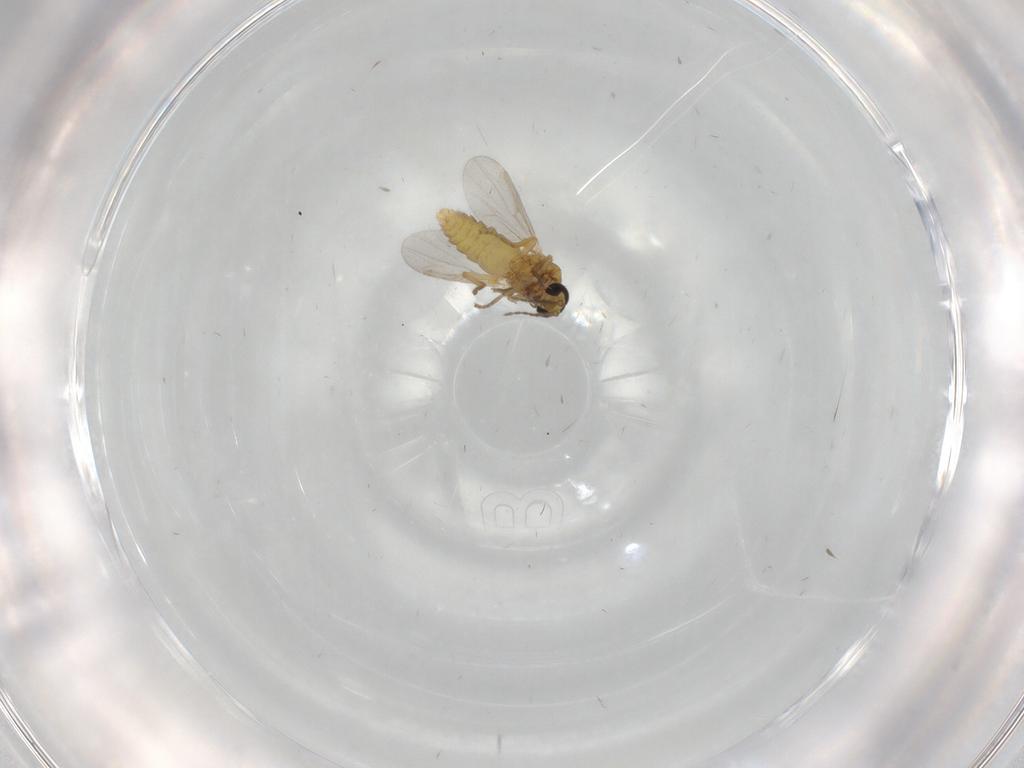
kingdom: Animalia
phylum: Arthropoda
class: Insecta
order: Diptera
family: Ceratopogonidae
